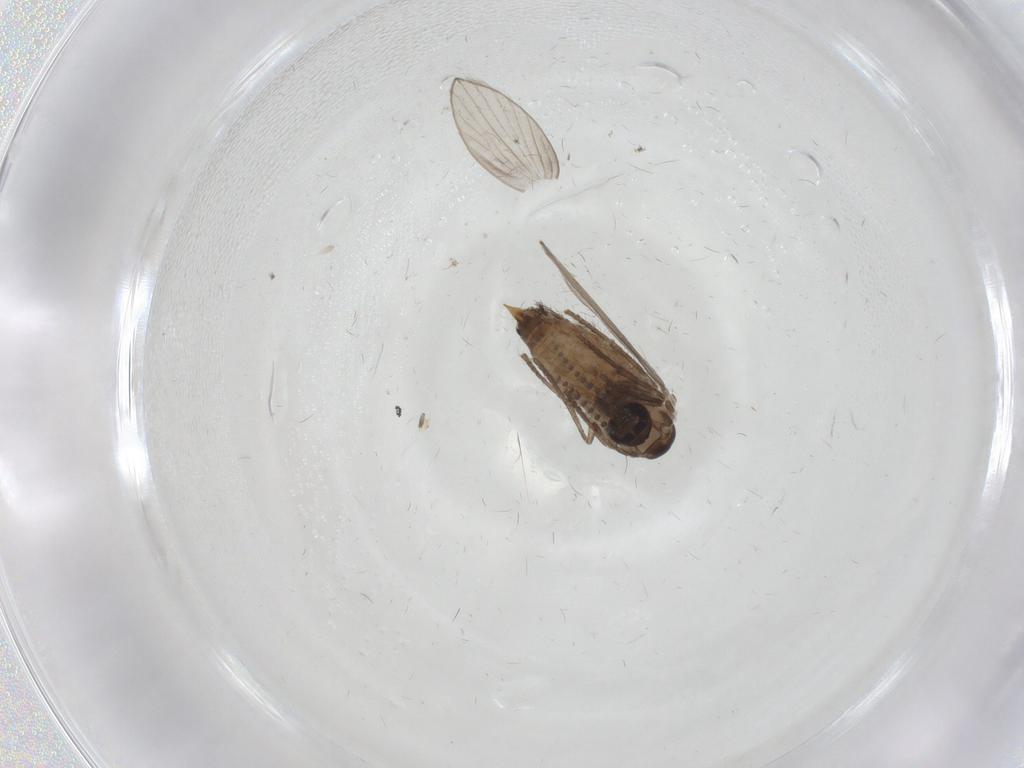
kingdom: Animalia
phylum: Arthropoda
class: Insecta
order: Diptera
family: Psychodidae
